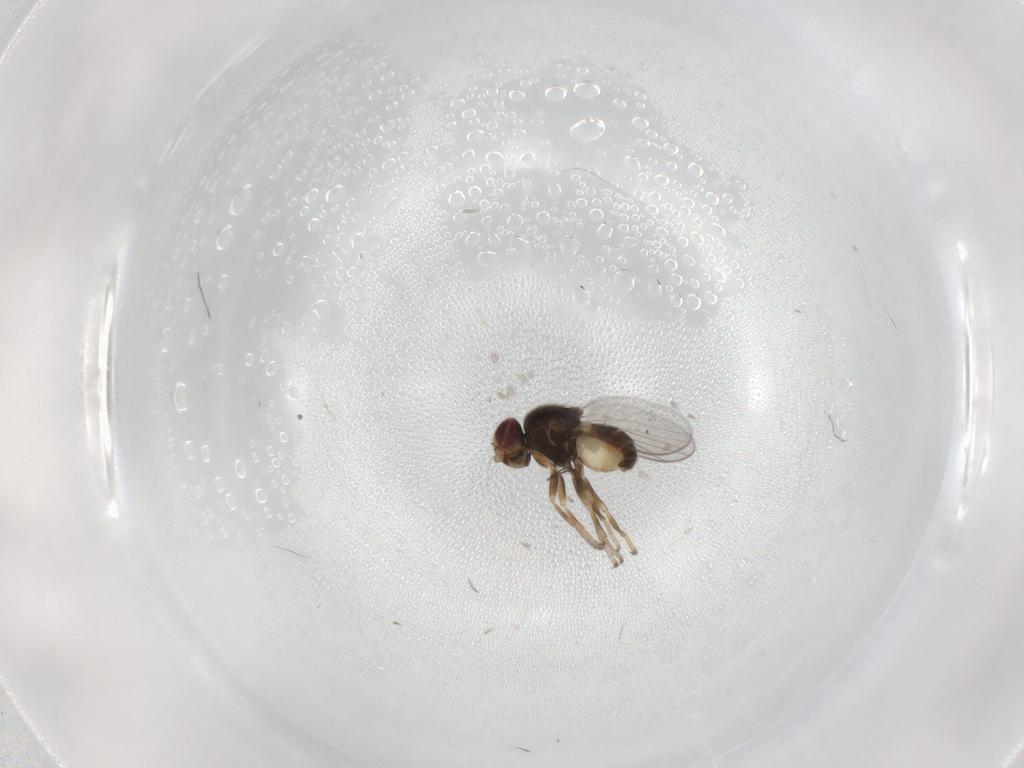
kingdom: Animalia
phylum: Arthropoda
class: Insecta
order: Diptera
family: Chloropidae
